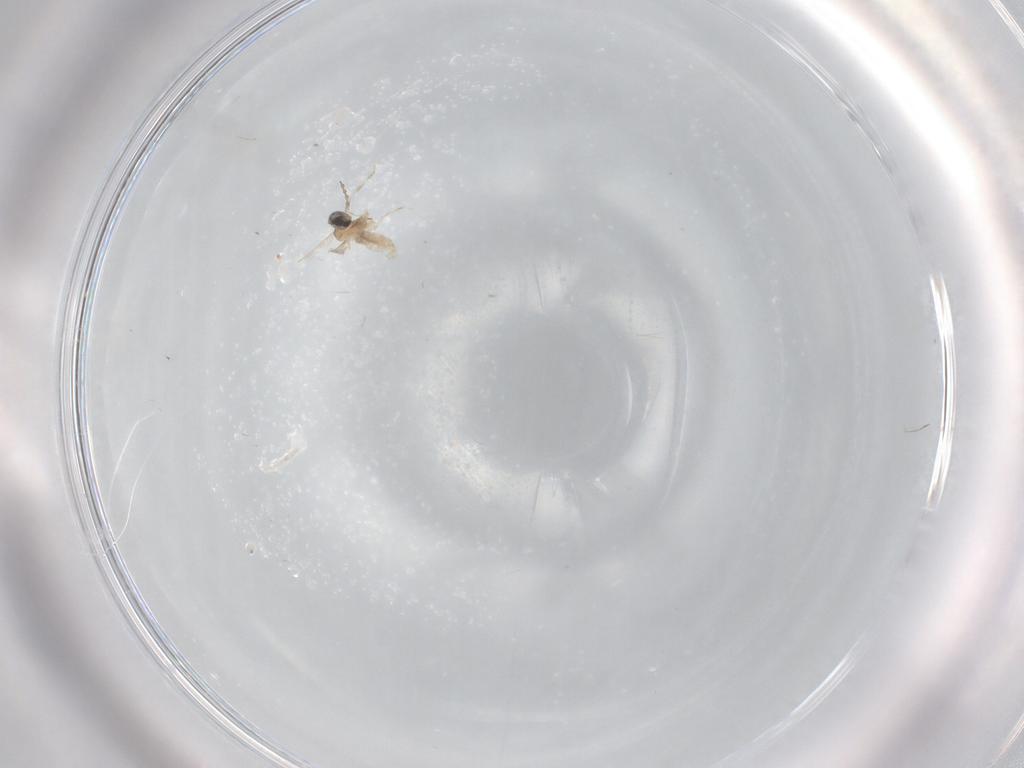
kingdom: Animalia
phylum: Arthropoda
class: Insecta
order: Diptera
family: Cecidomyiidae
